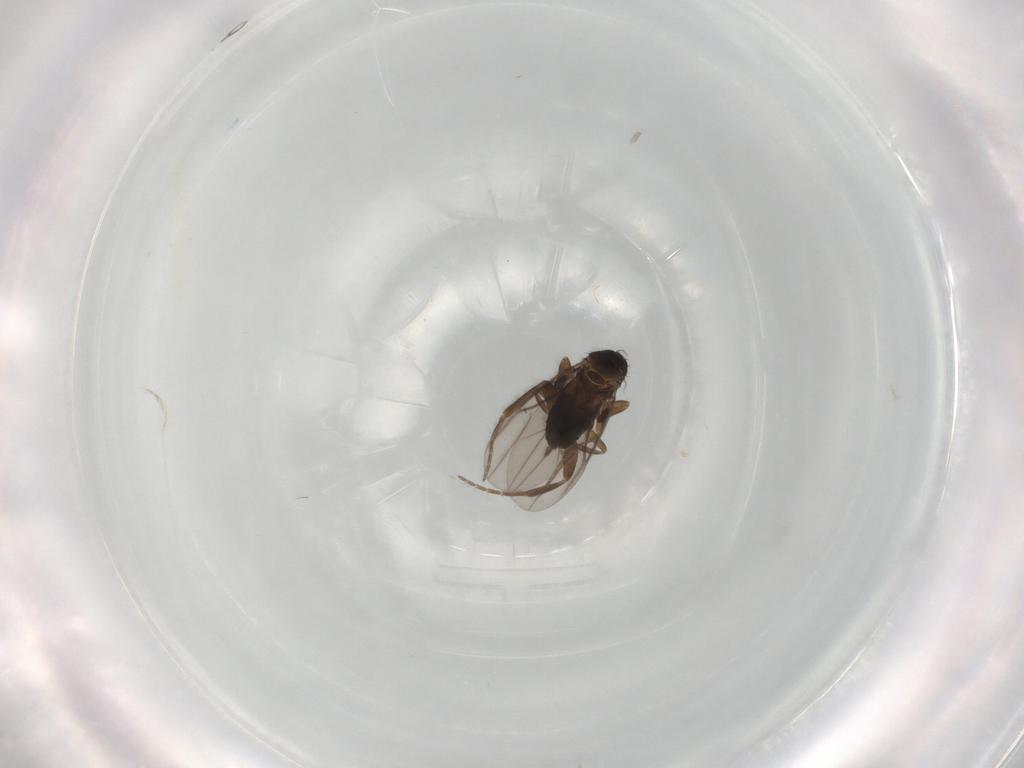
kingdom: Animalia
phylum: Arthropoda
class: Insecta
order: Diptera
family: Phoridae
